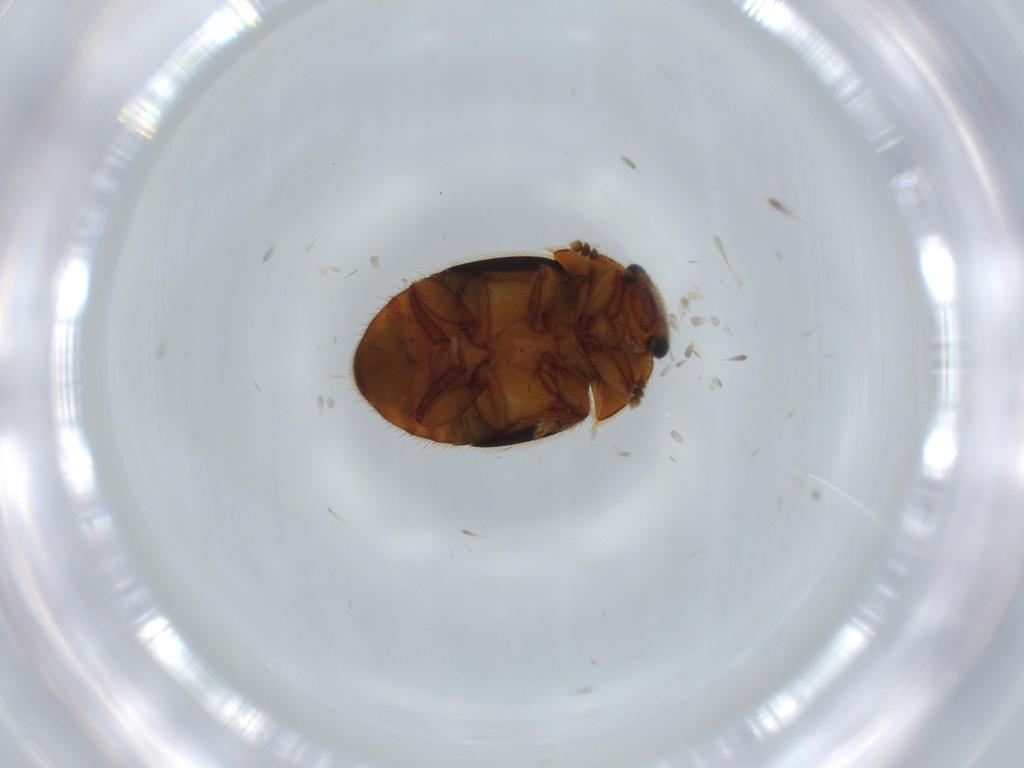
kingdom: Animalia
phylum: Arthropoda
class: Insecta
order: Coleoptera
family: Nitidulidae
